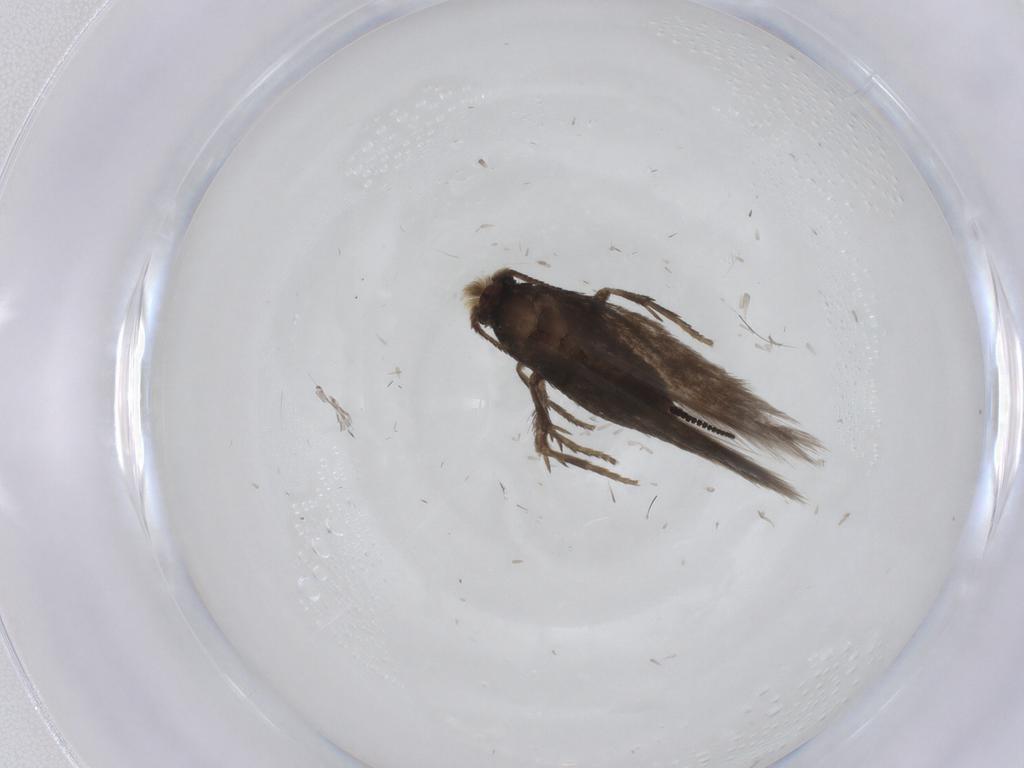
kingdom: Animalia
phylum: Arthropoda
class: Insecta
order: Lepidoptera
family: Nepticulidae
